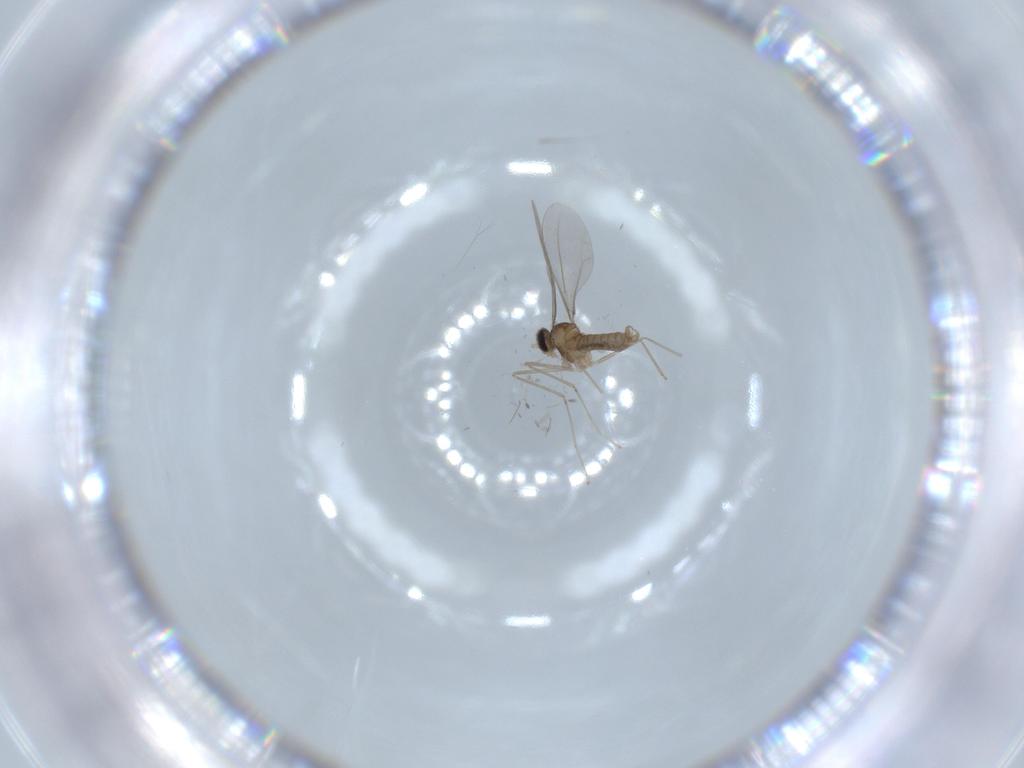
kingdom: Animalia
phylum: Arthropoda
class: Insecta
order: Diptera
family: Cecidomyiidae
